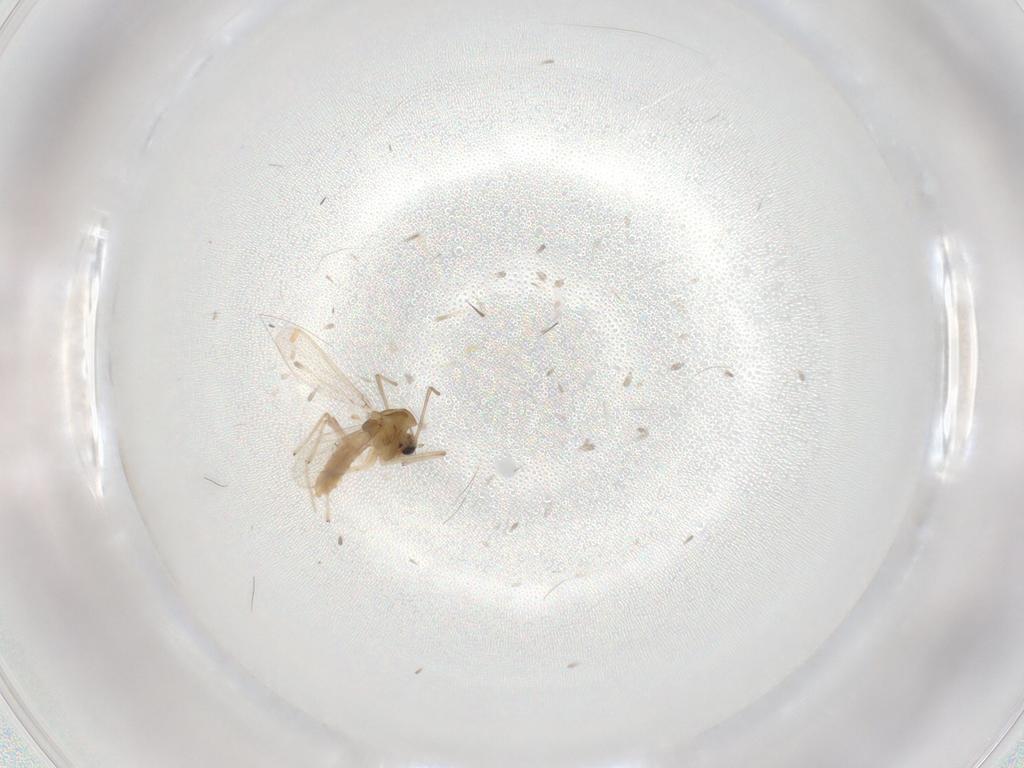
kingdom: Animalia
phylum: Arthropoda
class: Insecta
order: Diptera
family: Chironomidae
